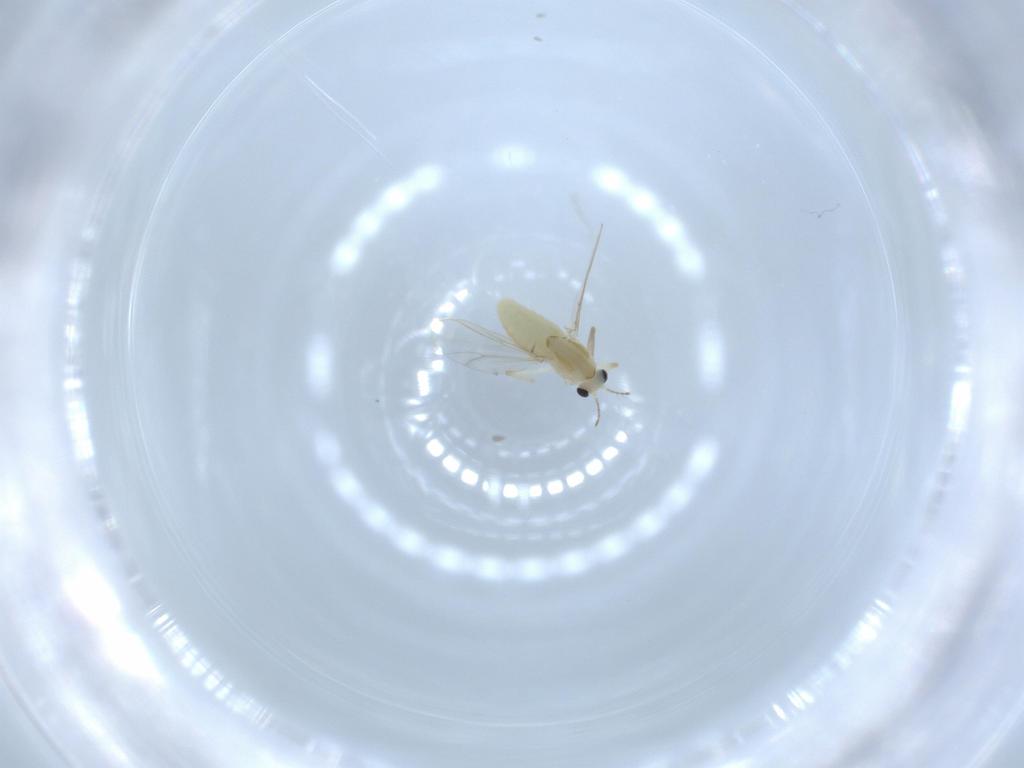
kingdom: Animalia
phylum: Arthropoda
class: Insecta
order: Diptera
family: Chironomidae
